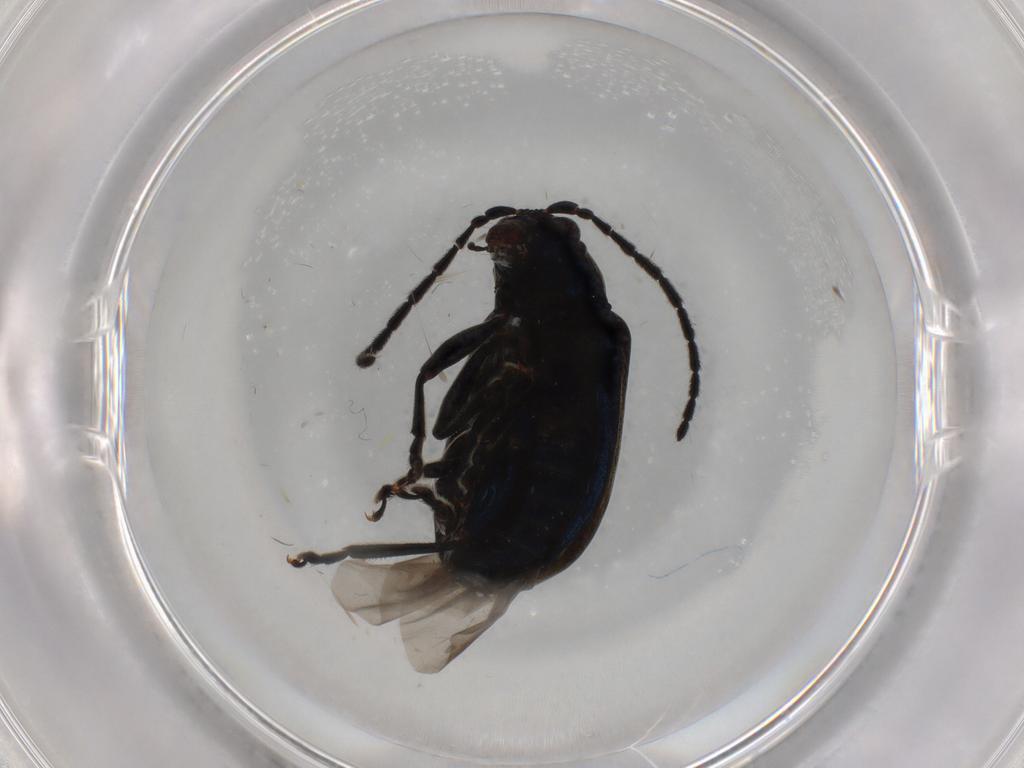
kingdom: Animalia
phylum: Arthropoda
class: Insecta
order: Coleoptera
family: Chrysomelidae
